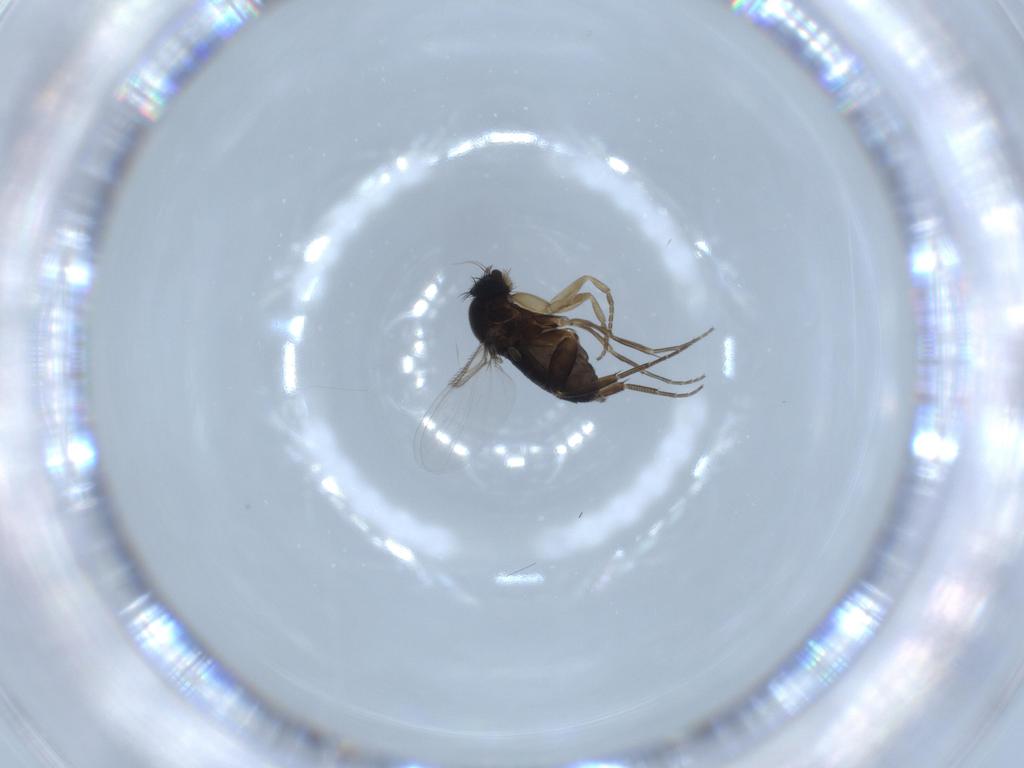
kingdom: Animalia
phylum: Arthropoda
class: Insecta
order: Diptera
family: Phoridae
